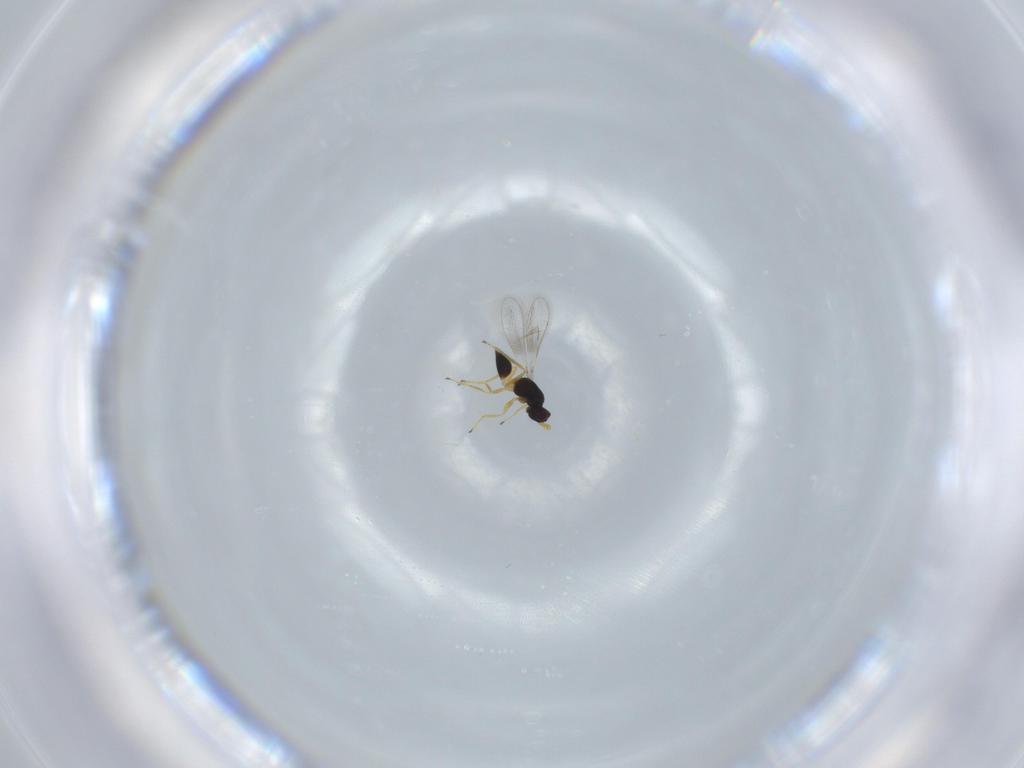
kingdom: Animalia
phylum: Arthropoda
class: Insecta
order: Hymenoptera
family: Mymaridae
